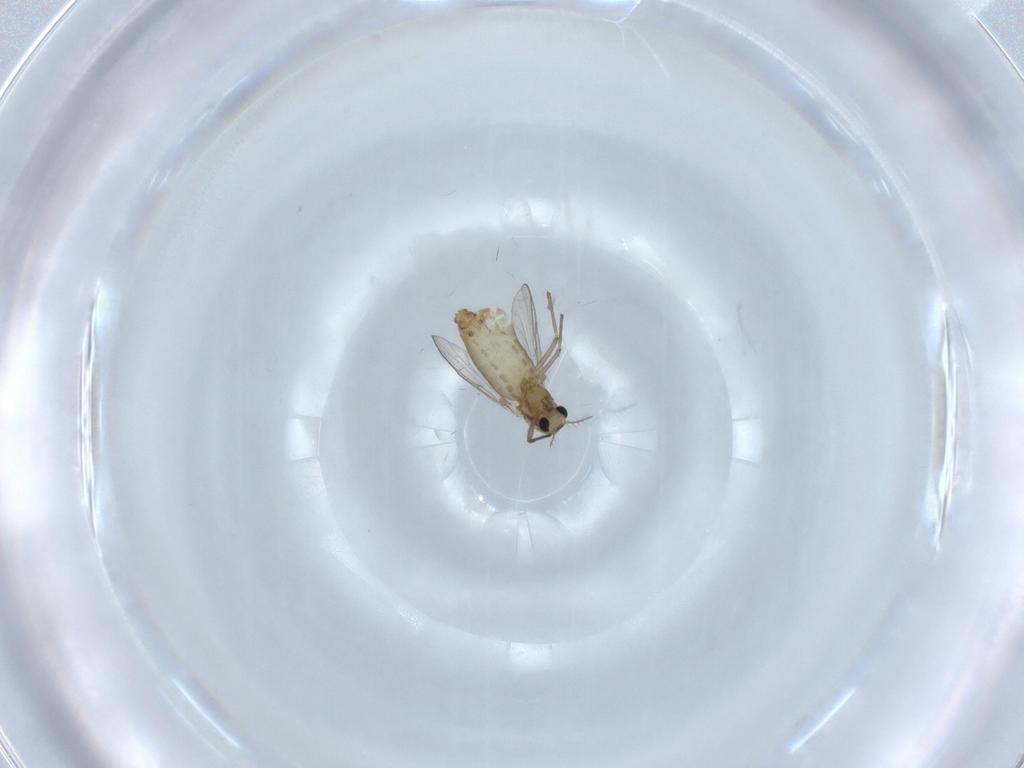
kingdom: Animalia
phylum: Arthropoda
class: Insecta
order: Diptera
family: Chironomidae
